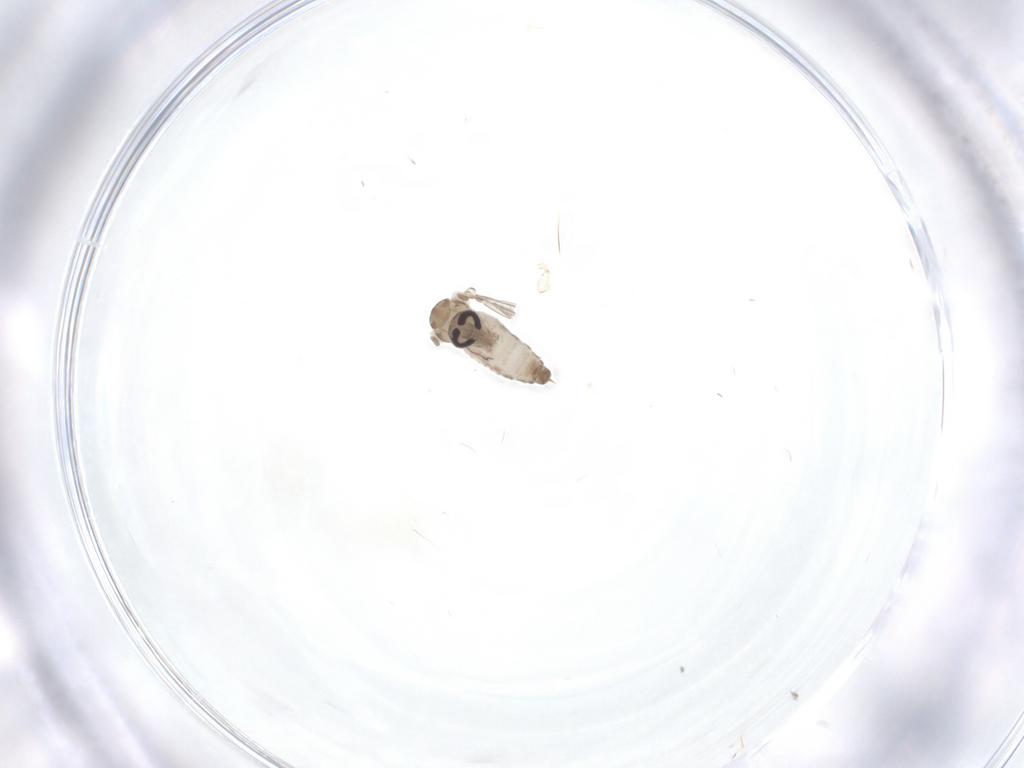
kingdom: Animalia
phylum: Arthropoda
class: Insecta
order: Diptera
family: Psychodidae
